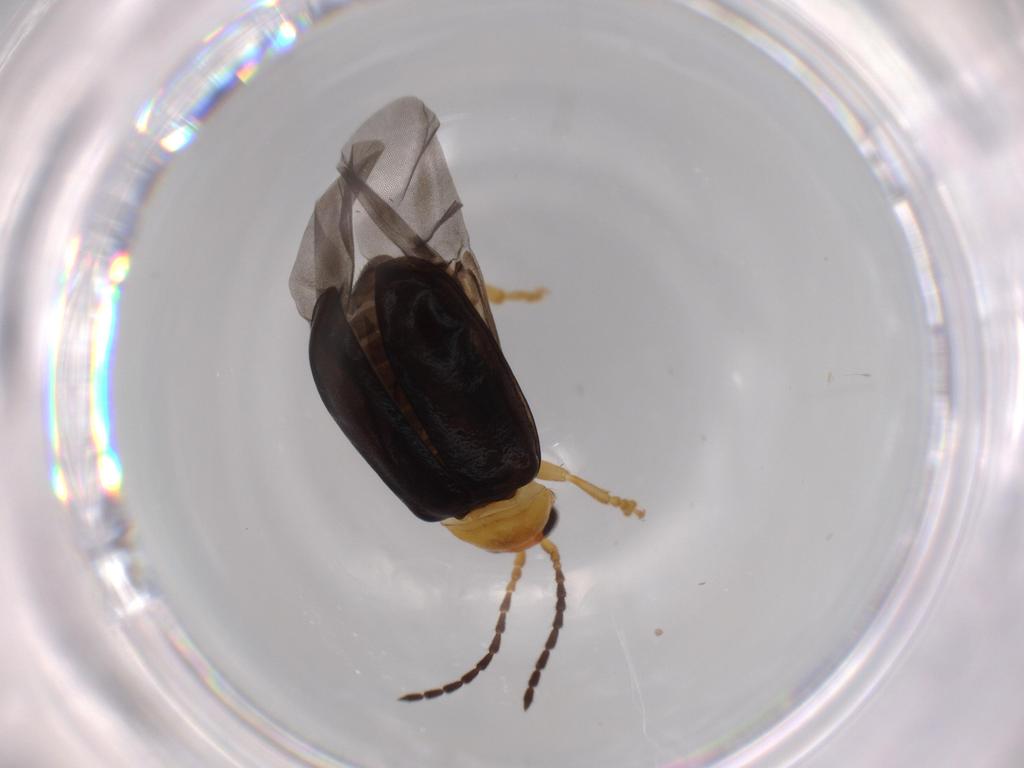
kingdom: Animalia
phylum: Arthropoda
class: Insecta
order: Coleoptera
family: Chrysomelidae
